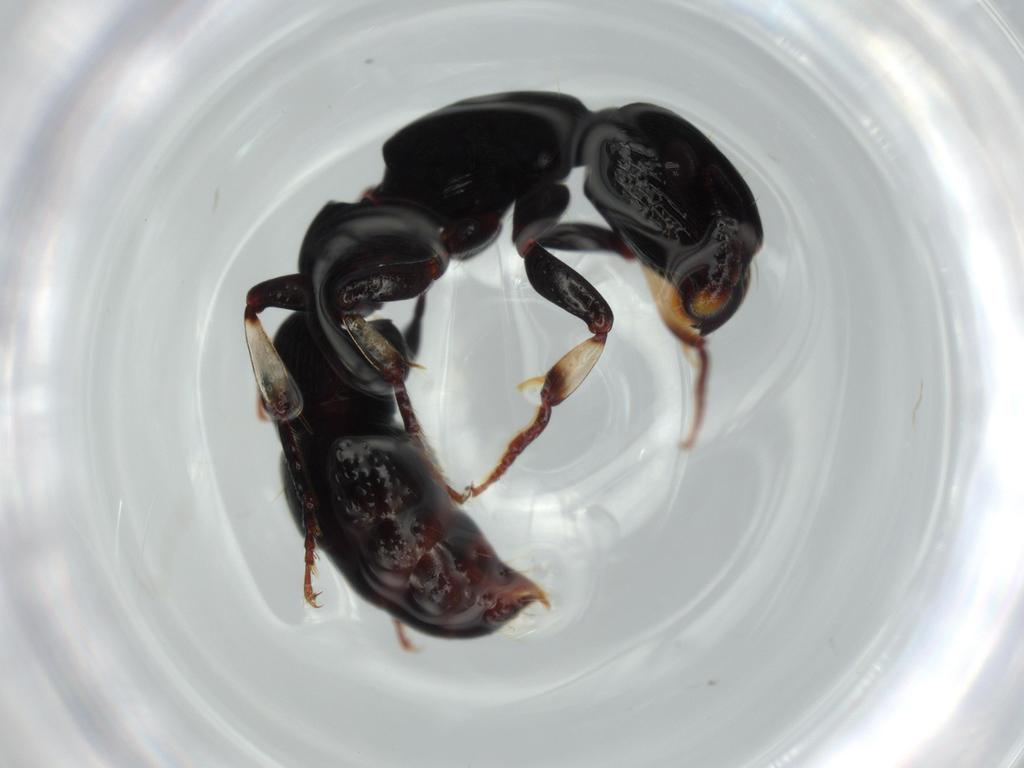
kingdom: Animalia
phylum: Arthropoda
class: Insecta
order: Hymenoptera
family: Formicidae
